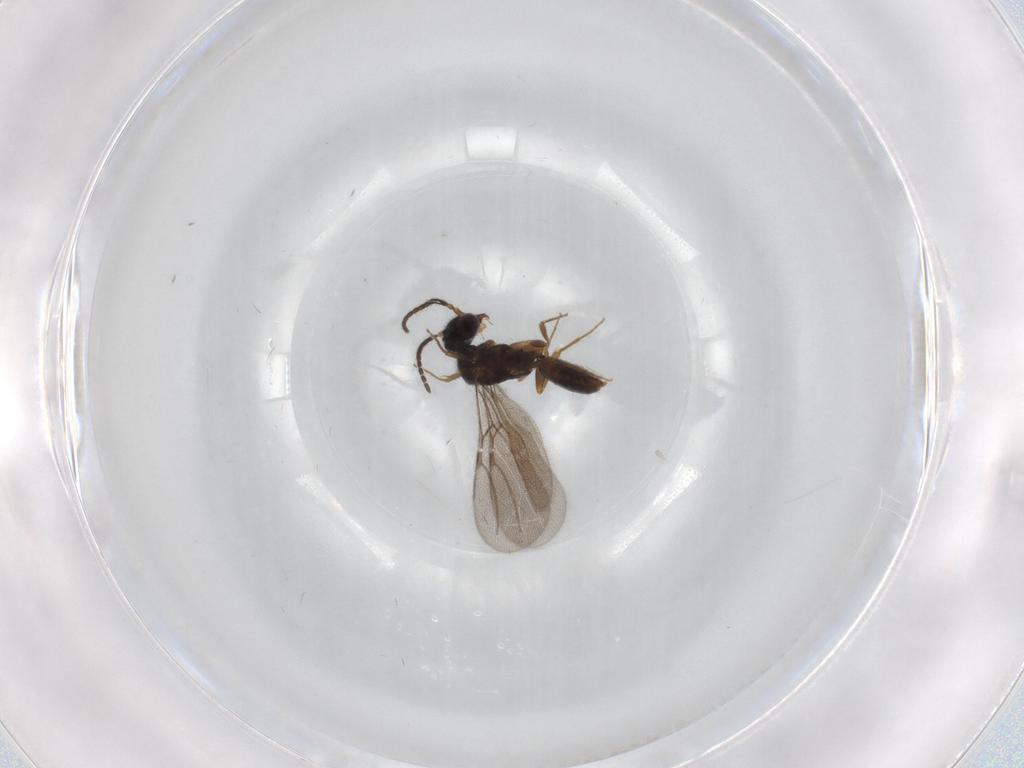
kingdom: Animalia
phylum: Arthropoda
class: Insecta
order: Hymenoptera
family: Bethylidae
